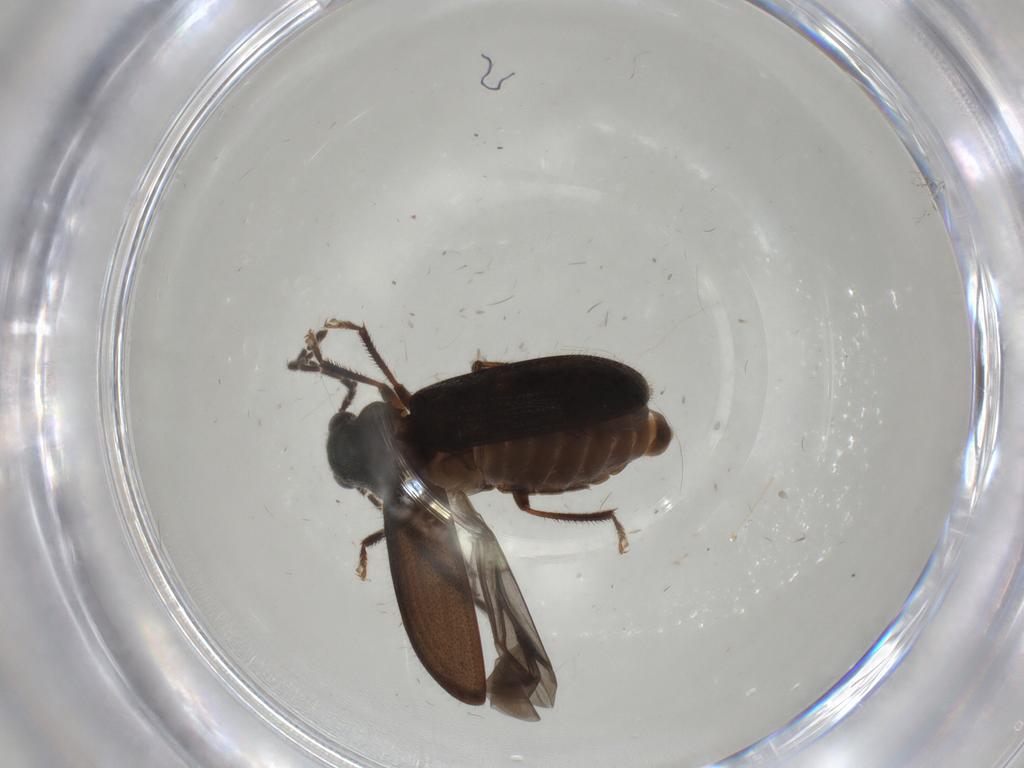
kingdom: Animalia
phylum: Arthropoda
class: Insecta
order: Coleoptera
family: Ptilodactylidae
